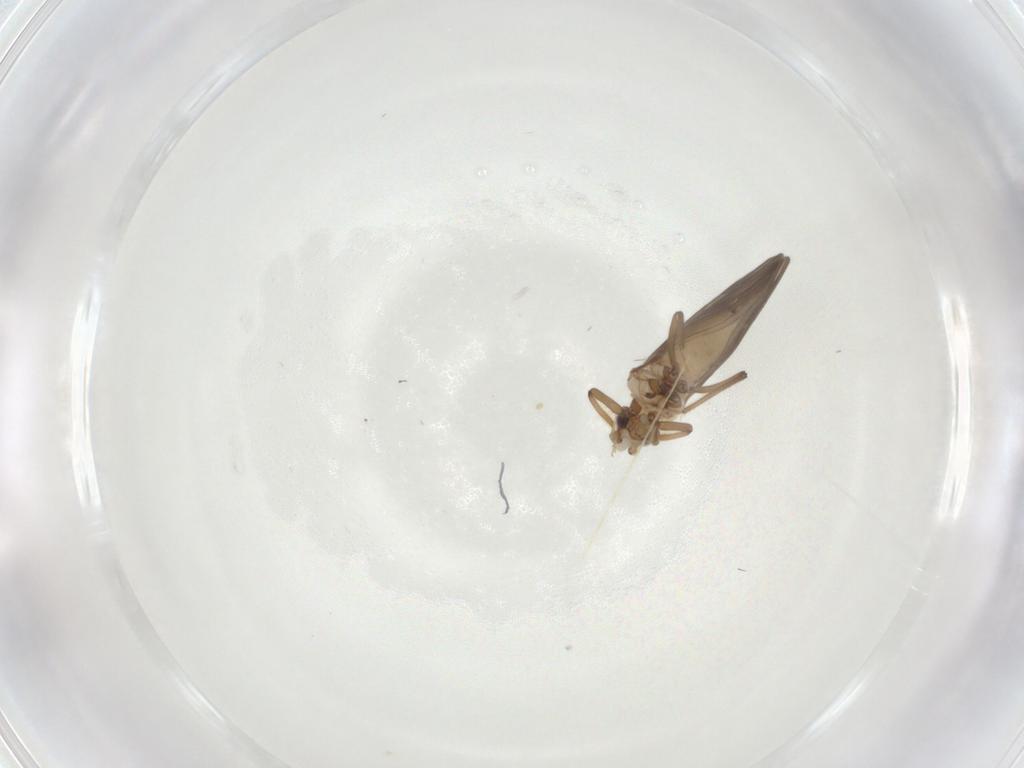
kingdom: Animalia
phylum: Arthropoda
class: Insecta
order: Neuroptera
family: Coniopterygidae
